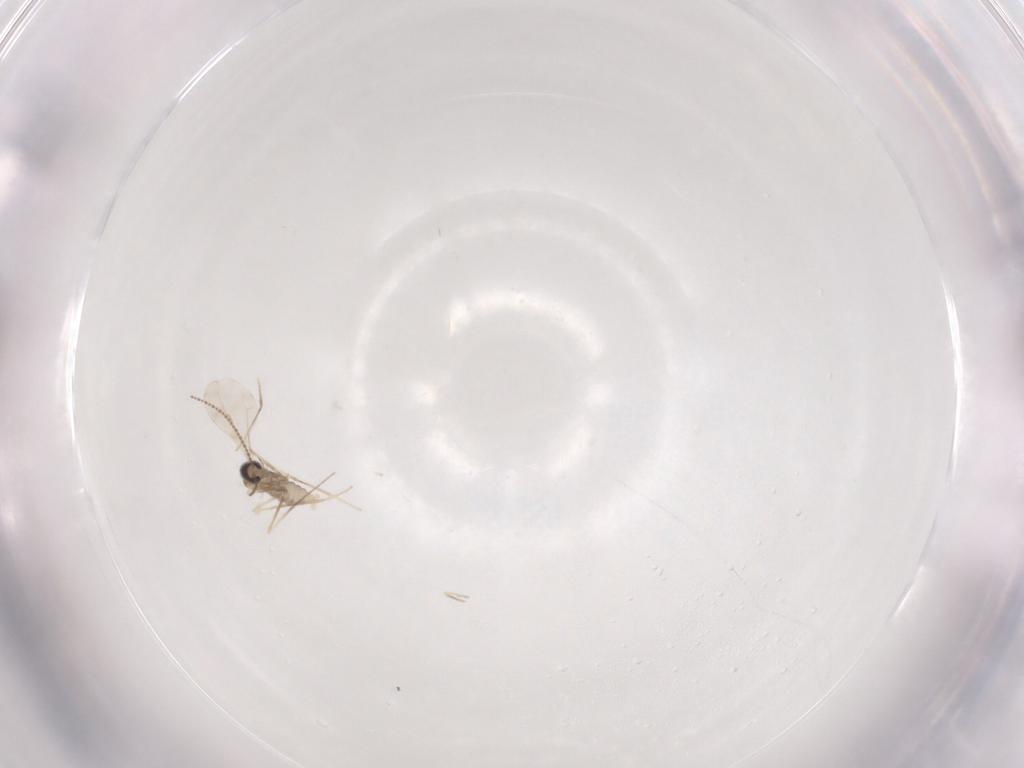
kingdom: Animalia
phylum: Arthropoda
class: Insecta
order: Diptera
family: Cecidomyiidae
